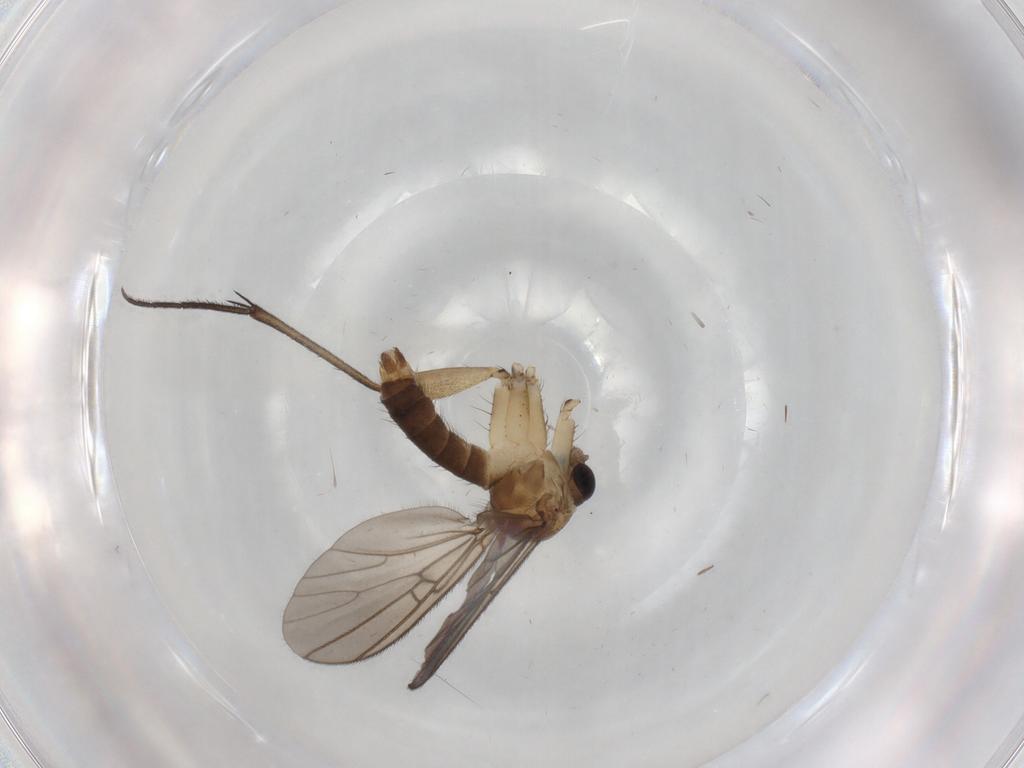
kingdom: Animalia
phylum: Arthropoda
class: Insecta
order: Diptera
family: Phoridae
